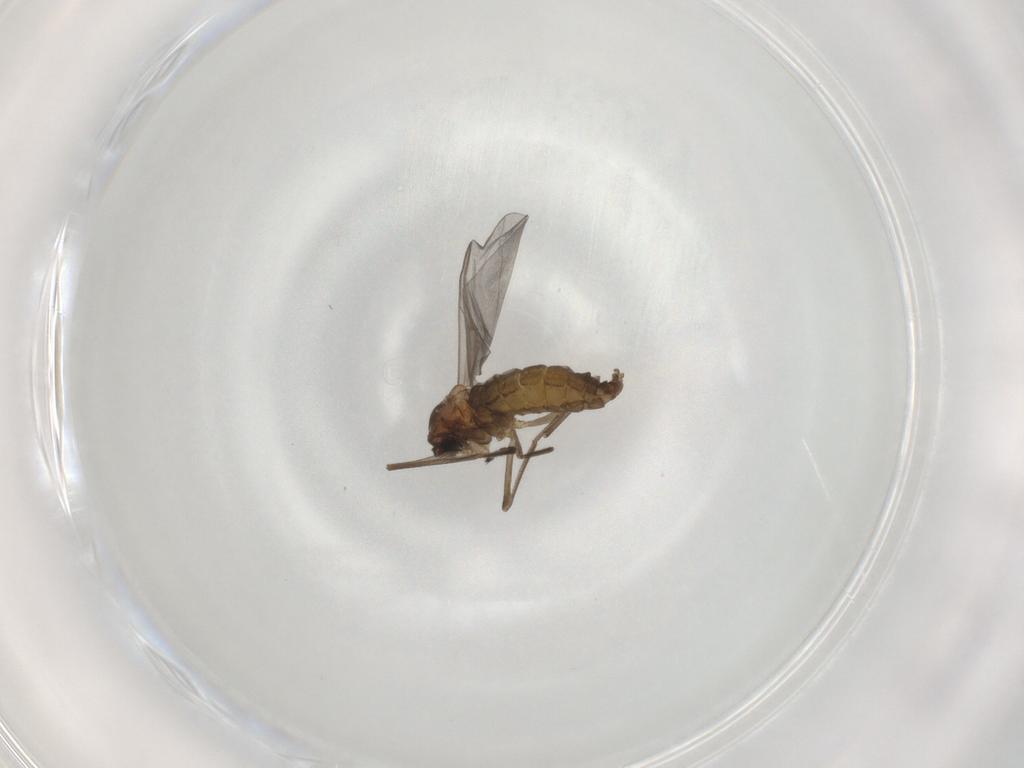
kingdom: Animalia
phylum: Arthropoda
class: Insecta
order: Diptera
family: Cecidomyiidae
